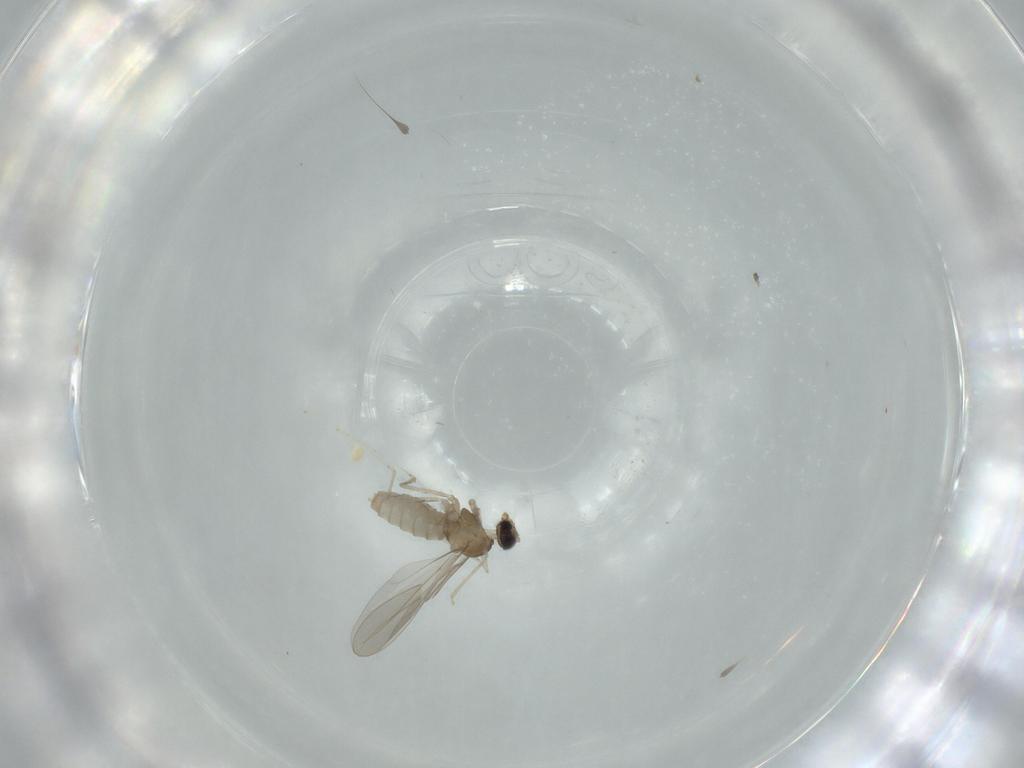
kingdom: Animalia
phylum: Arthropoda
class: Insecta
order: Diptera
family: Cecidomyiidae
